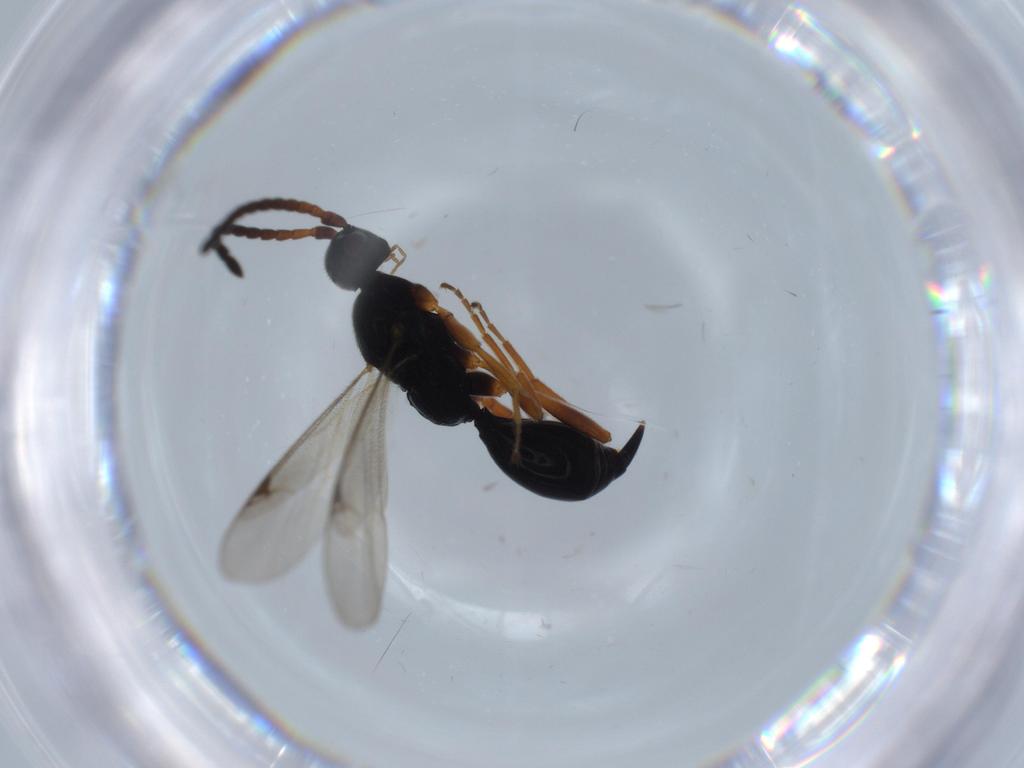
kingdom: Animalia
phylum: Arthropoda
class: Insecta
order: Hymenoptera
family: Proctotrupidae
